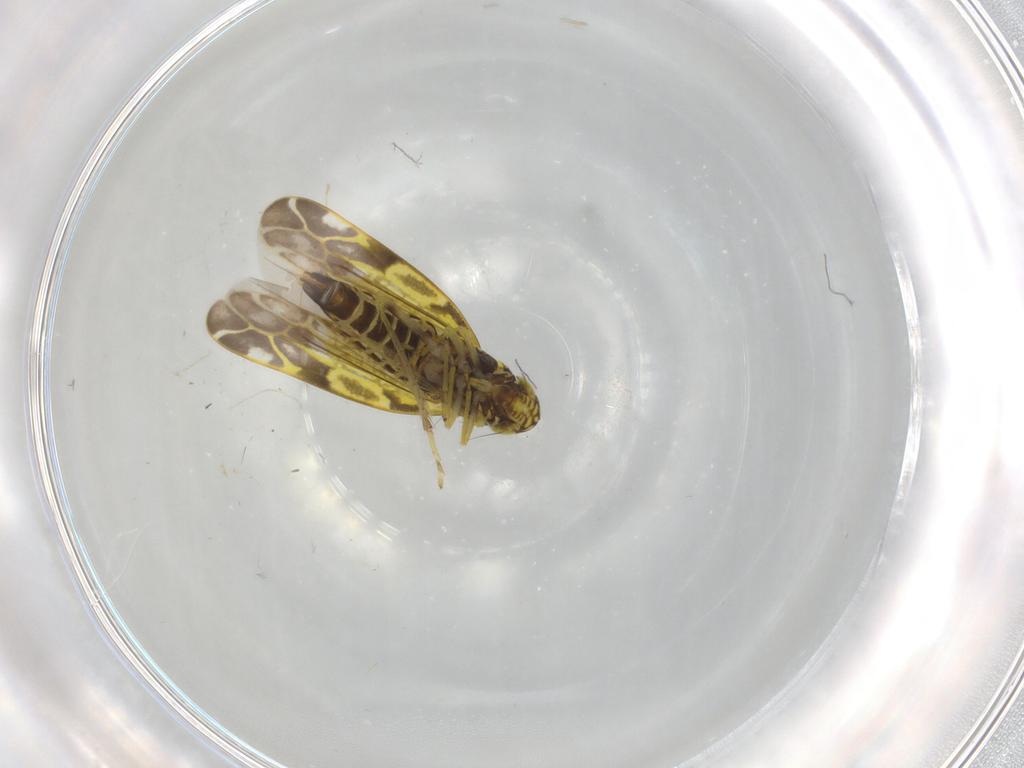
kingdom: Animalia
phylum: Arthropoda
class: Insecta
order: Hemiptera
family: Cicadellidae
